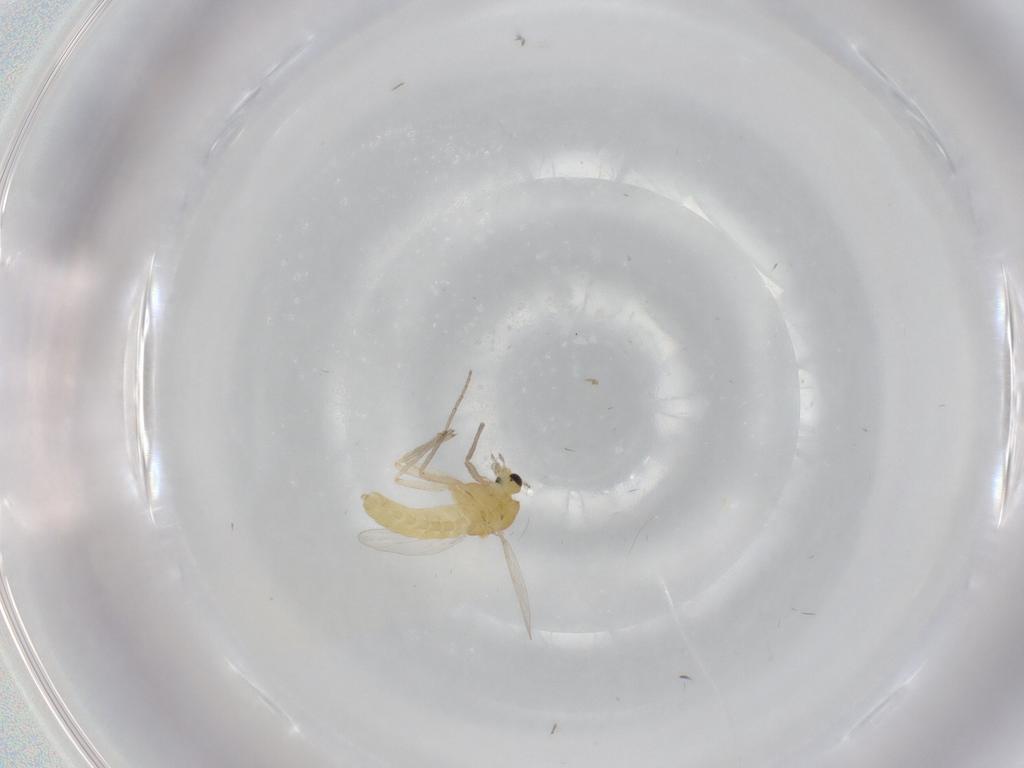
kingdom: Animalia
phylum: Arthropoda
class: Insecta
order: Diptera
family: Chironomidae
